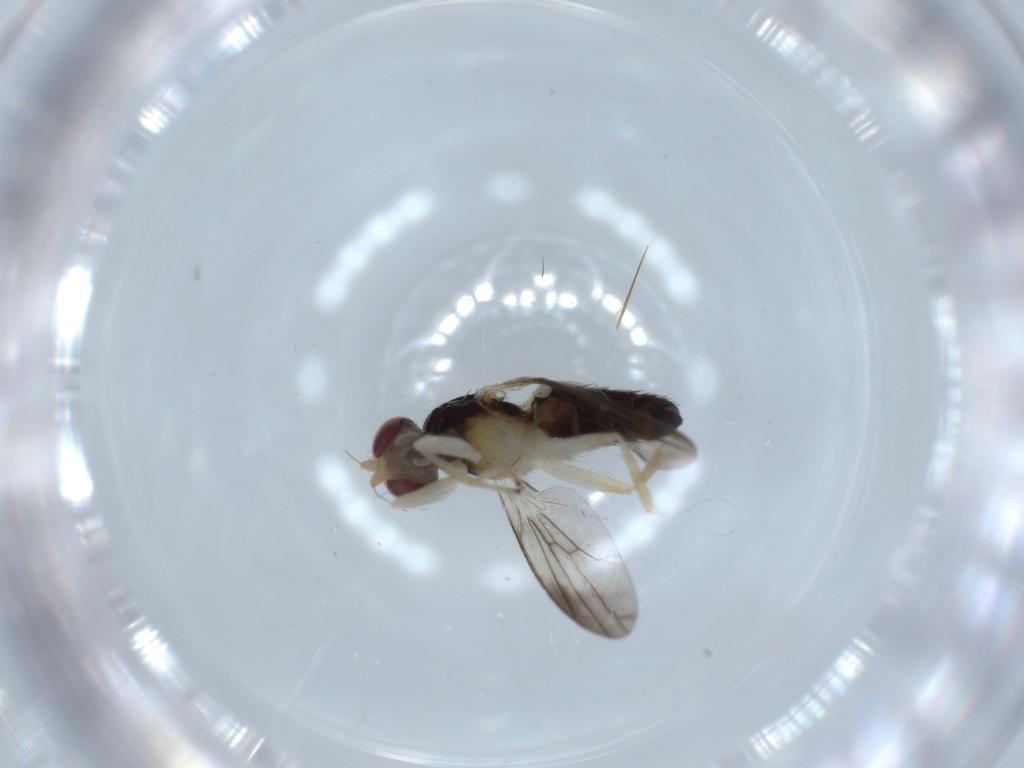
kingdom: Animalia
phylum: Arthropoda
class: Insecta
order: Diptera
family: Clusiidae
